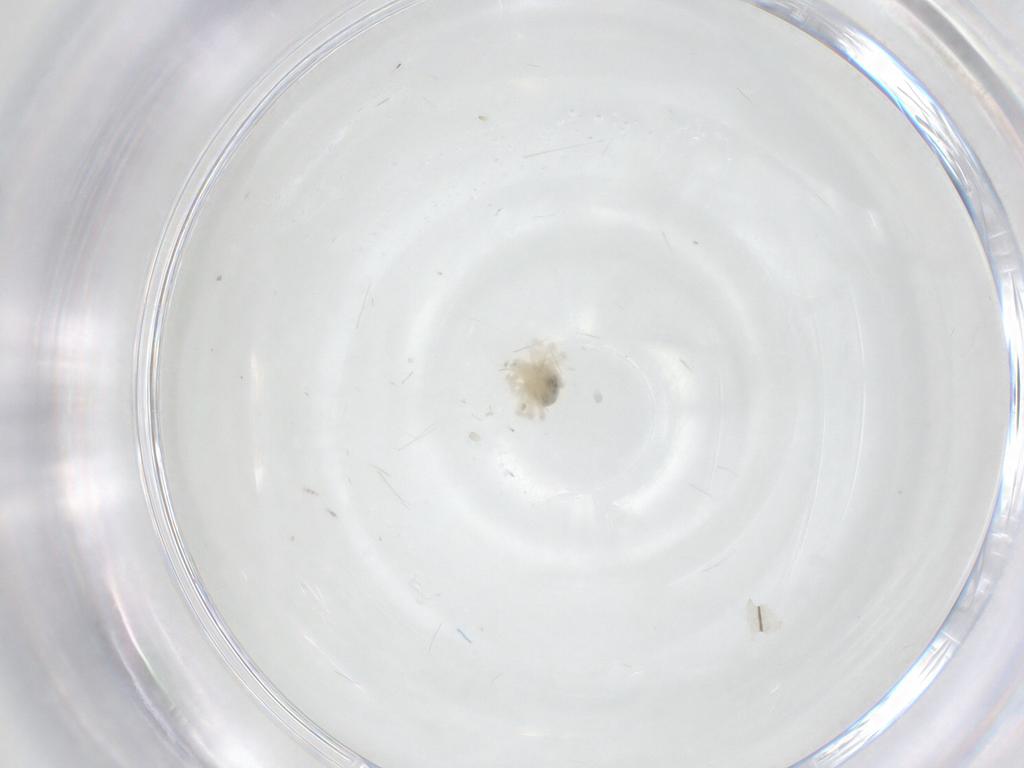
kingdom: Animalia
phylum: Arthropoda
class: Arachnida
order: Trombidiformes
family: Anystidae
